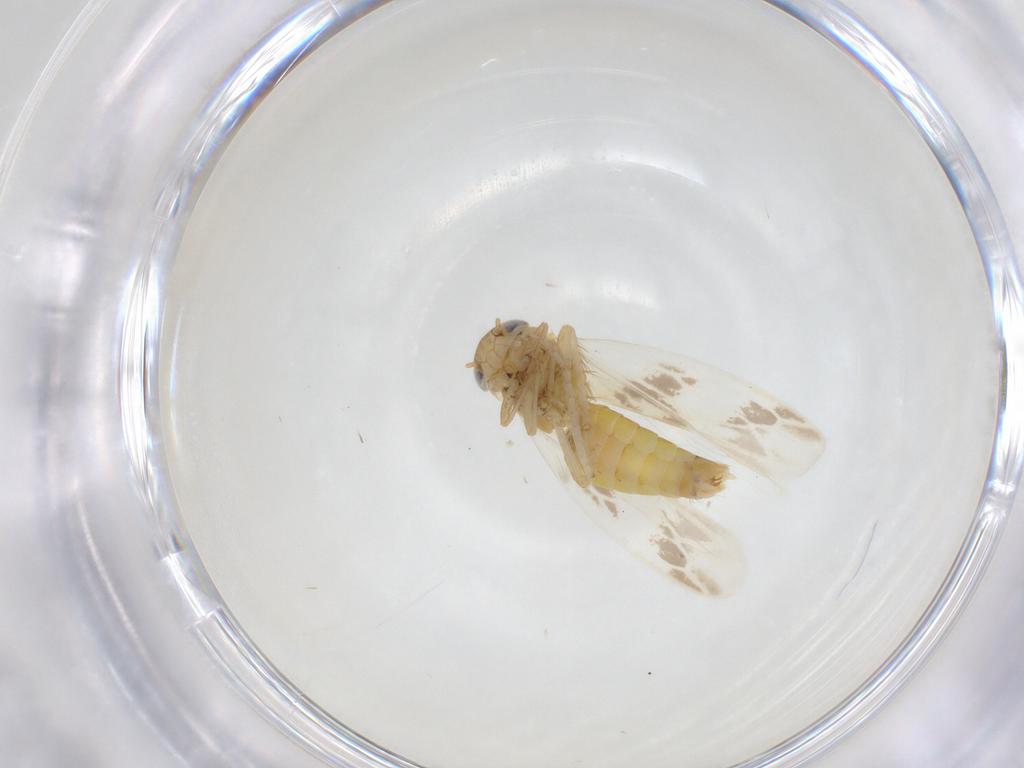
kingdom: Animalia
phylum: Arthropoda
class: Insecta
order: Hemiptera
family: Cicadellidae
